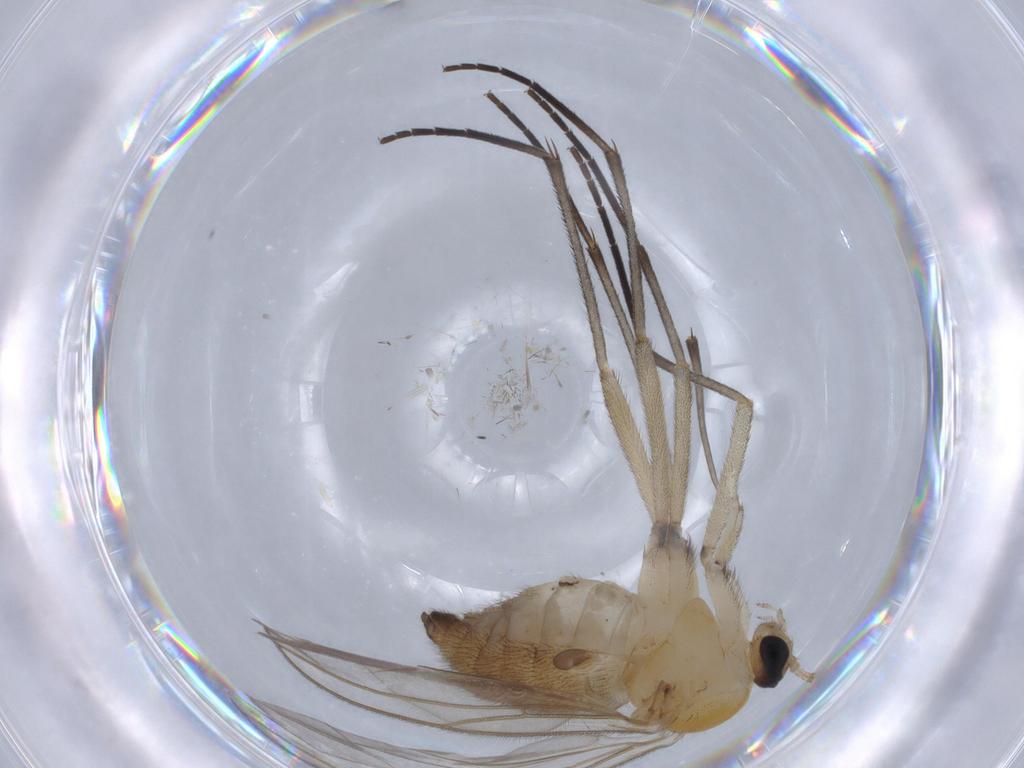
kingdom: Animalia
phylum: Arthropoda
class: Insecta
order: Diptera
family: Sciaridae
